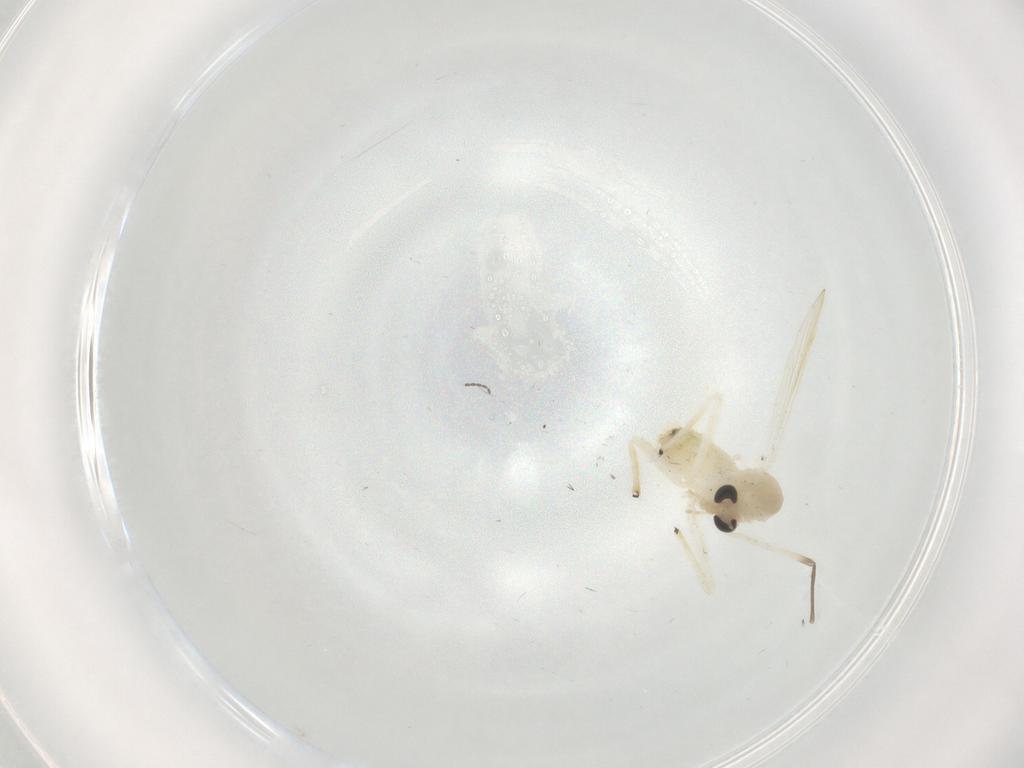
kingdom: Animalia
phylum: Arthropoda
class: Insecta
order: Diptera
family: Chironomidae
